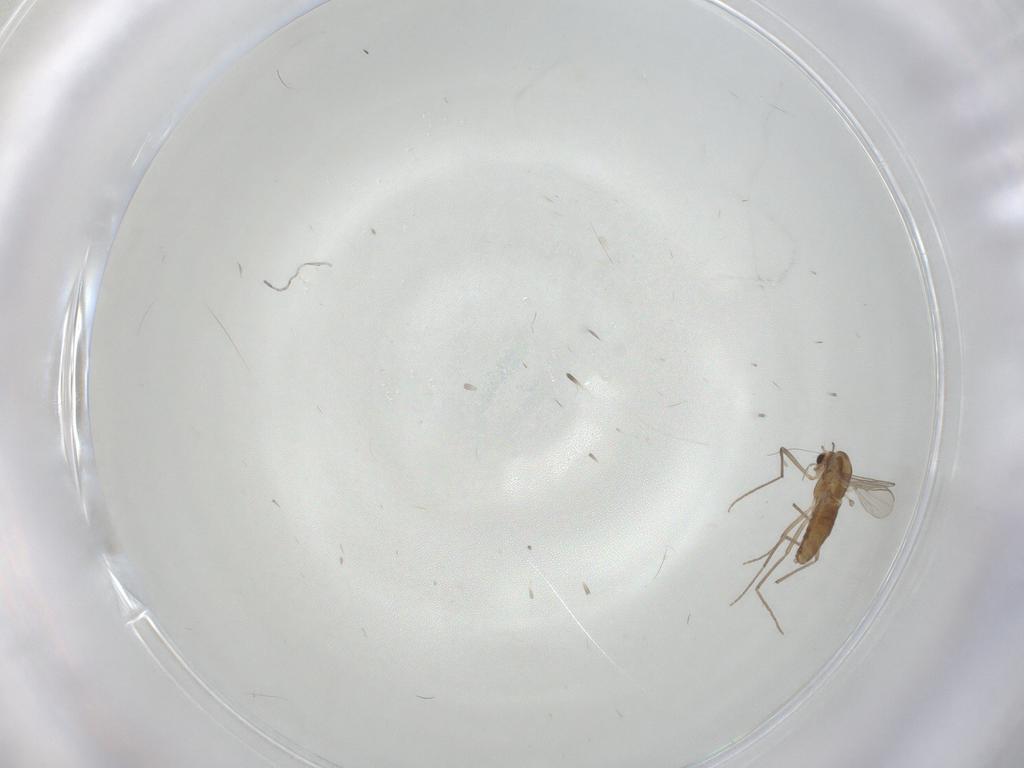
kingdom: Animalia
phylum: Arthropoda
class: Insecta
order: Diptera
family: Chironomidae
